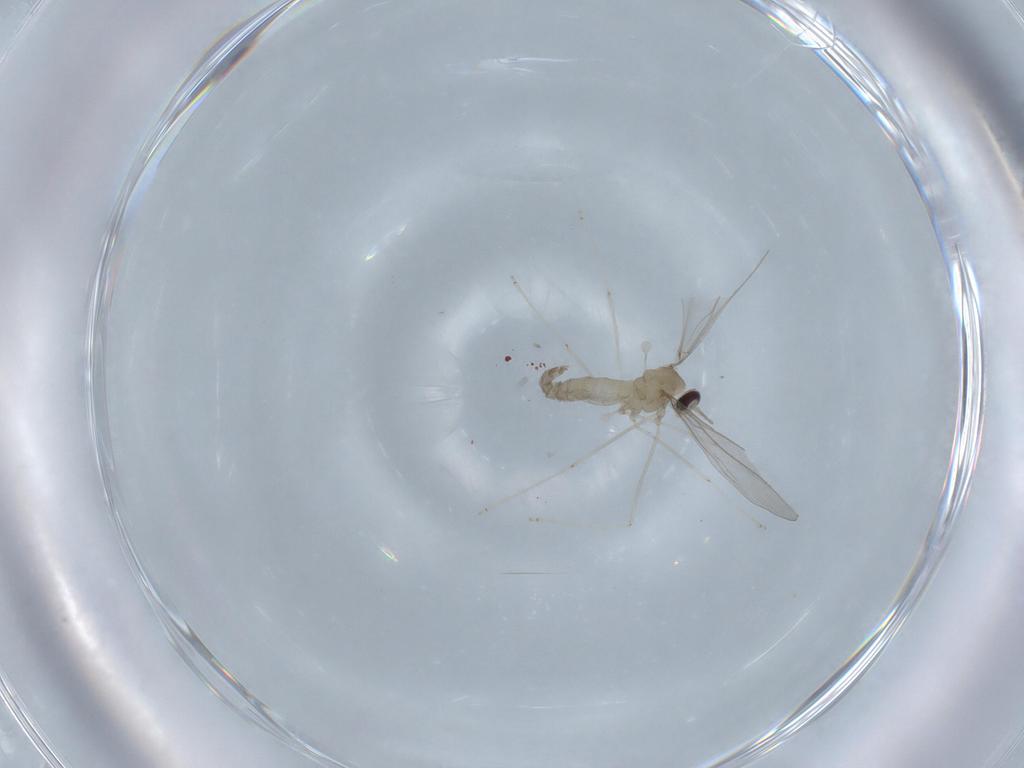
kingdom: Animalia
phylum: Arthropoda
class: Insecta
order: Diptera
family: Cecidomyiidae
